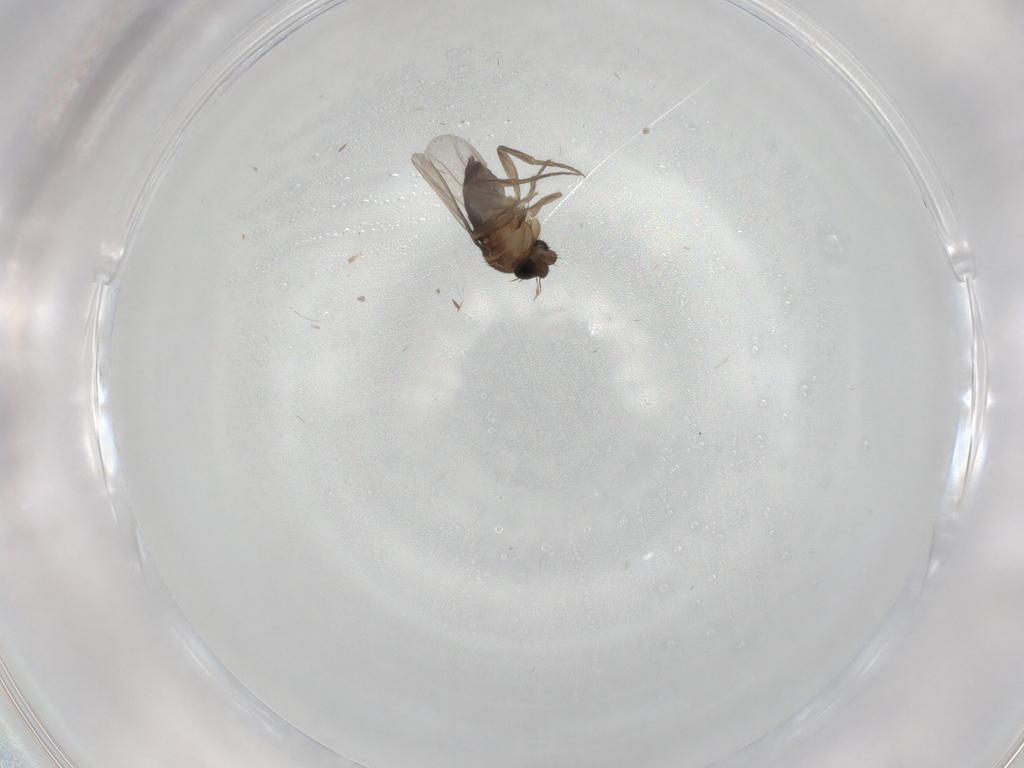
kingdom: Animalia
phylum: Arthropoda
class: Insecta
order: Diptera
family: Phoridae
